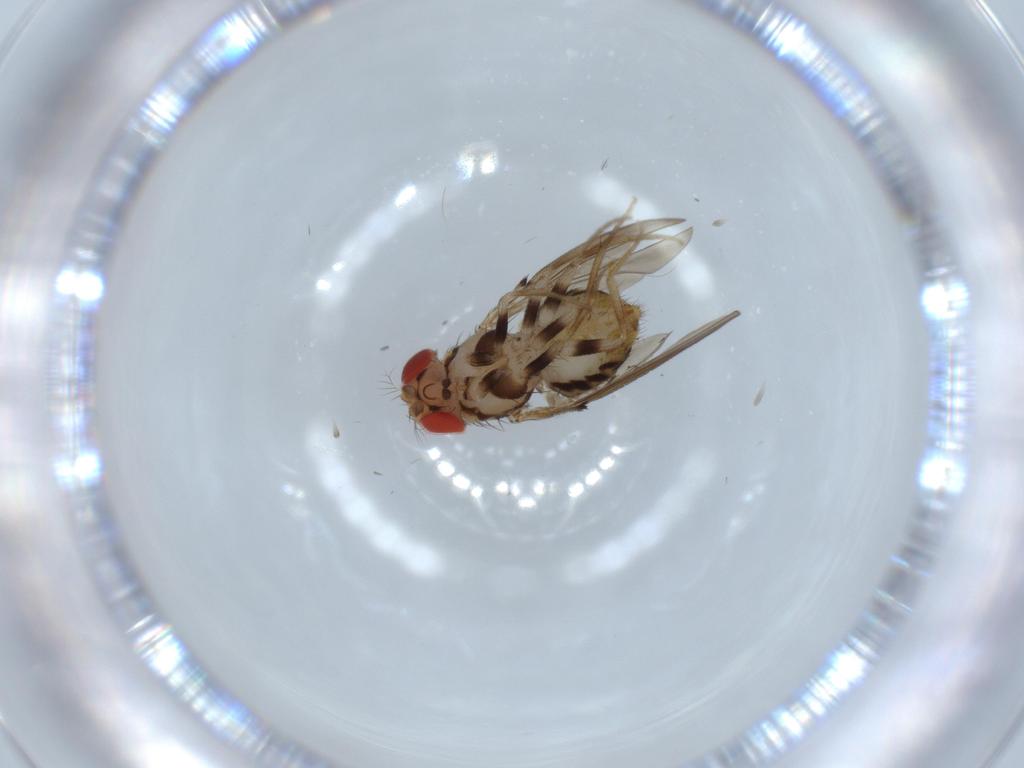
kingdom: Animalia
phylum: Arthropoda
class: Insecta
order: Diptera
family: Drosophilidae
